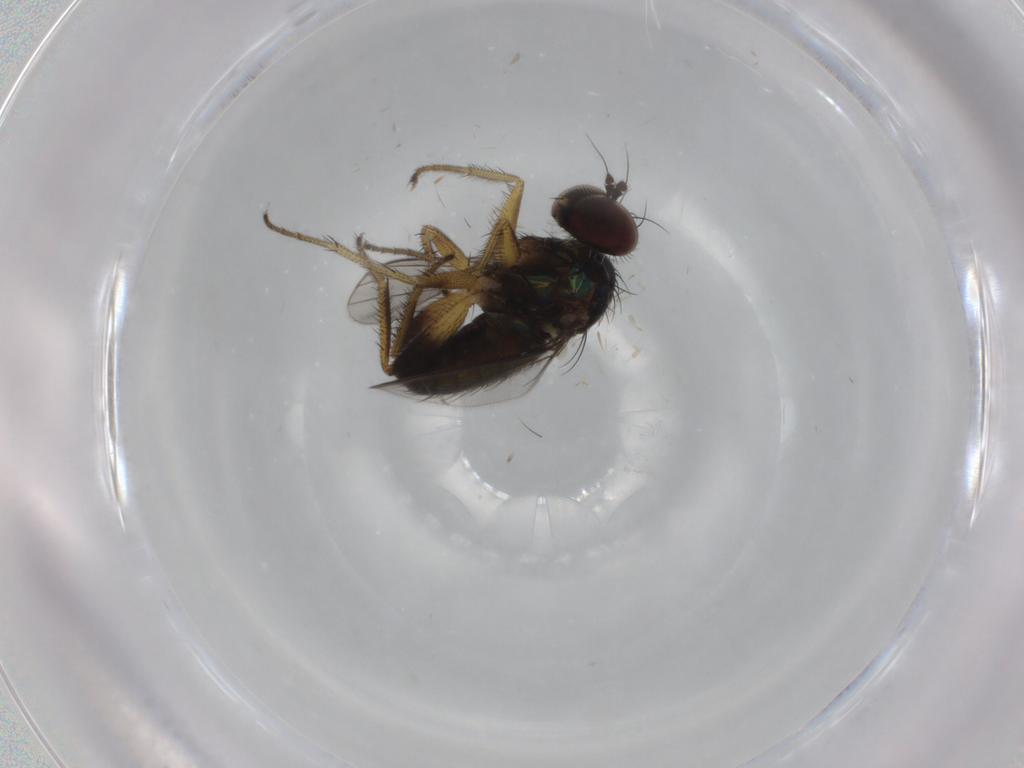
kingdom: Animalia
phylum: Arthropoda
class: Insecta
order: Diptera
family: Dolichopodidae
